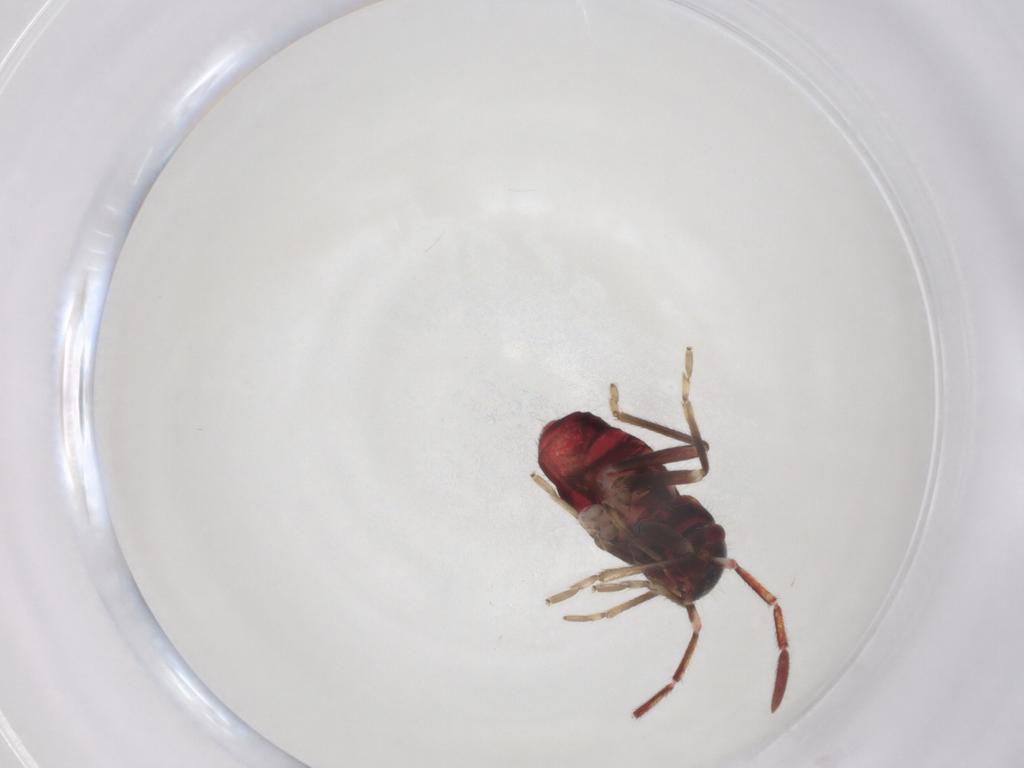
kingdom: Animalia
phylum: Arthropoda
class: Insecta
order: Hemiptera
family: Rhyparochromidae
